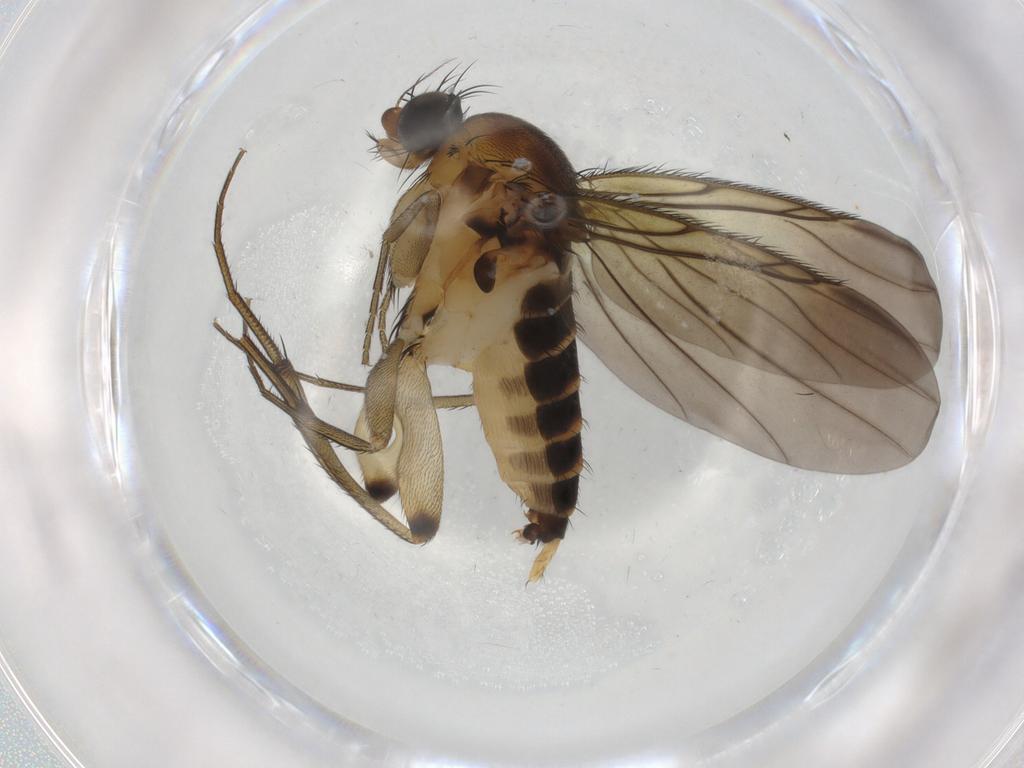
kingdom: Animalia
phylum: Arthropoda
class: Insecta
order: Diptera
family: Phoridae
